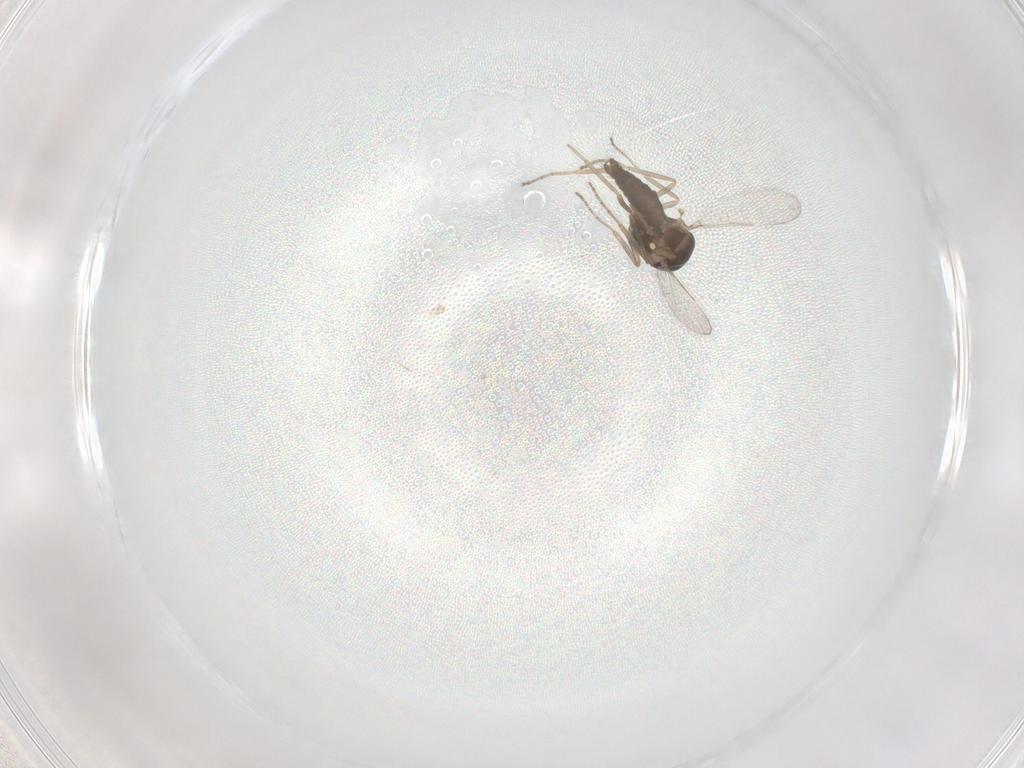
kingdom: Animalia
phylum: Arthropoda
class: Insecta
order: Diptera
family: Ceratopogonidae
